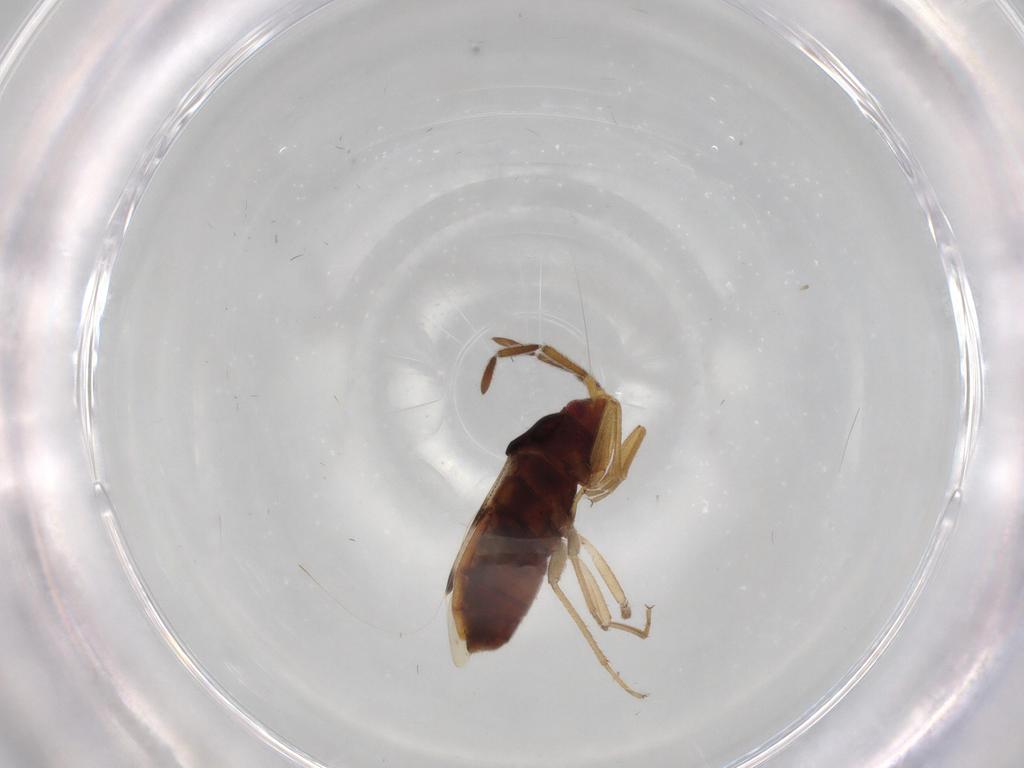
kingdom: Animalia
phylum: Arthropoda
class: Insecta
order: Hemiptera
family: Rhyparochromidae
